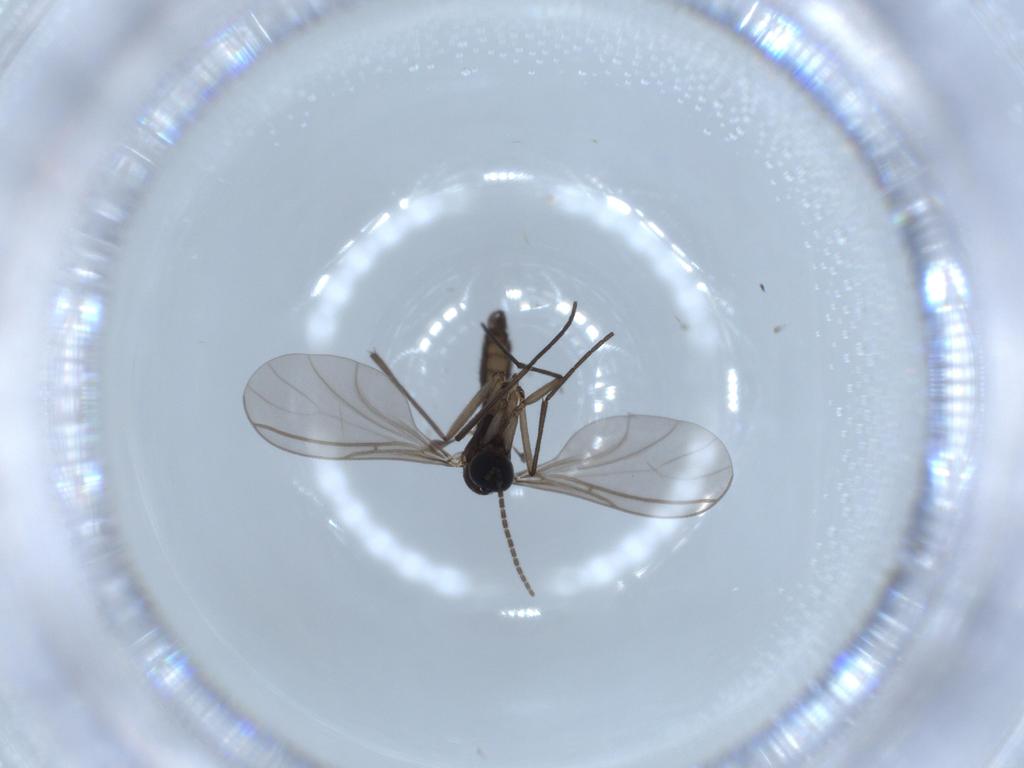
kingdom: Animalia
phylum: Arthropoda
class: Insecta
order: Diptera
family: Sciaridae
